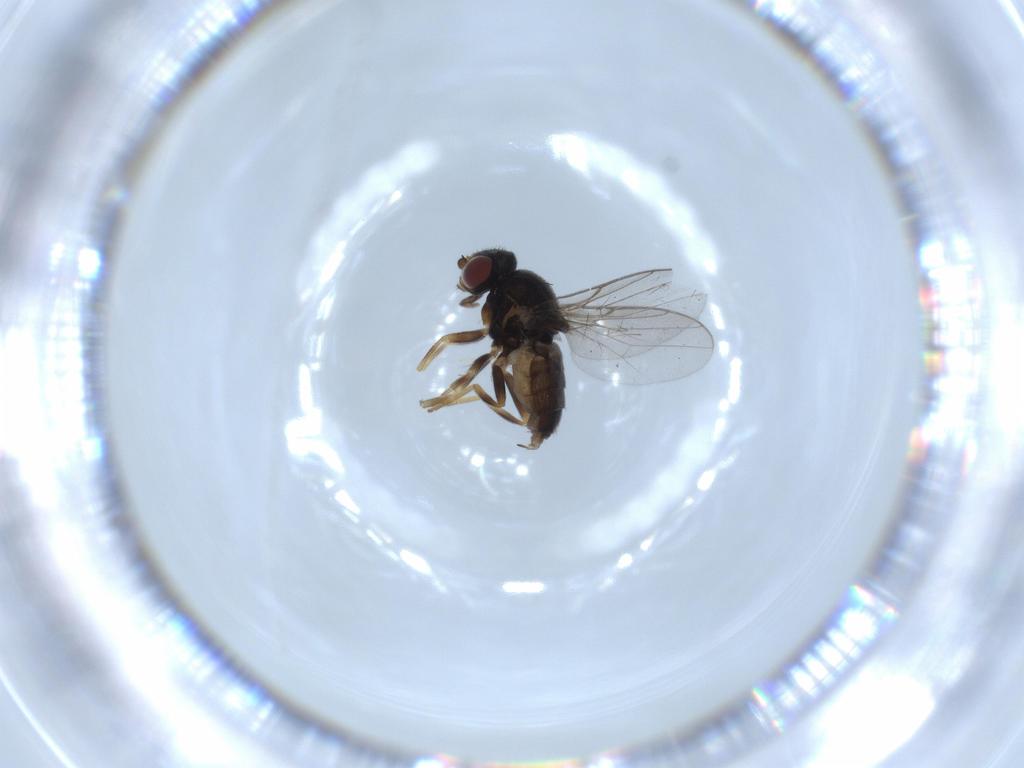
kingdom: Animalia
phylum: Arthropoda
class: Insecta
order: Diptera
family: Chloropidae
